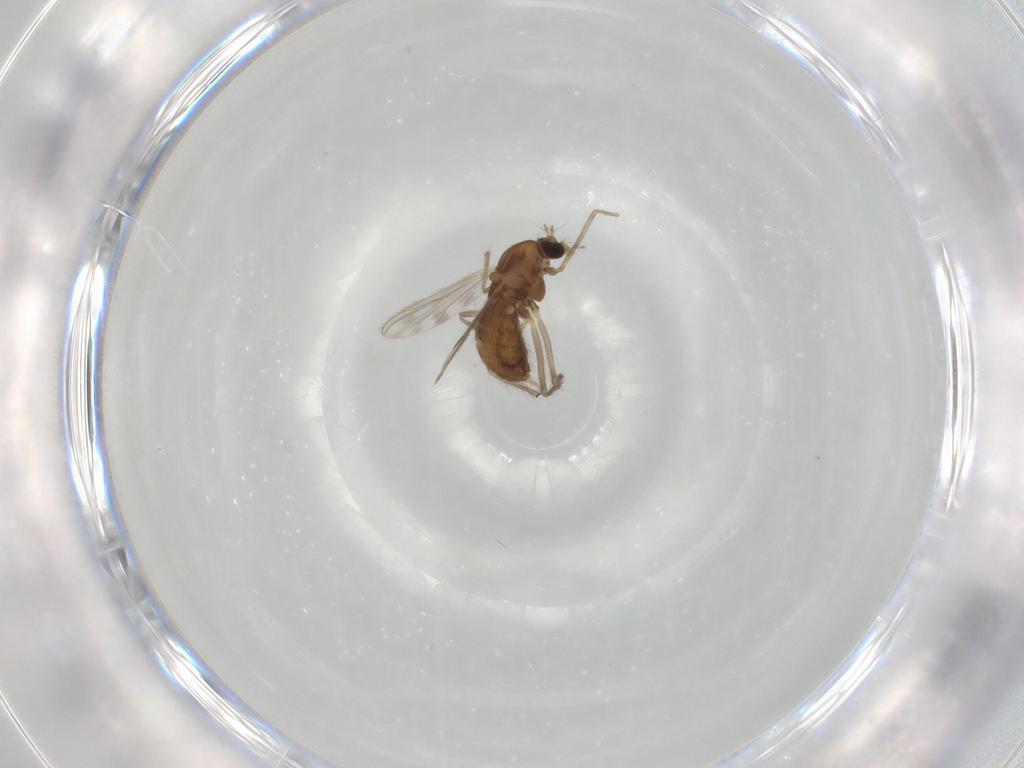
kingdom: Animalia
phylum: Arthropoda
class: Insecta
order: Diptera
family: Chironomidae
